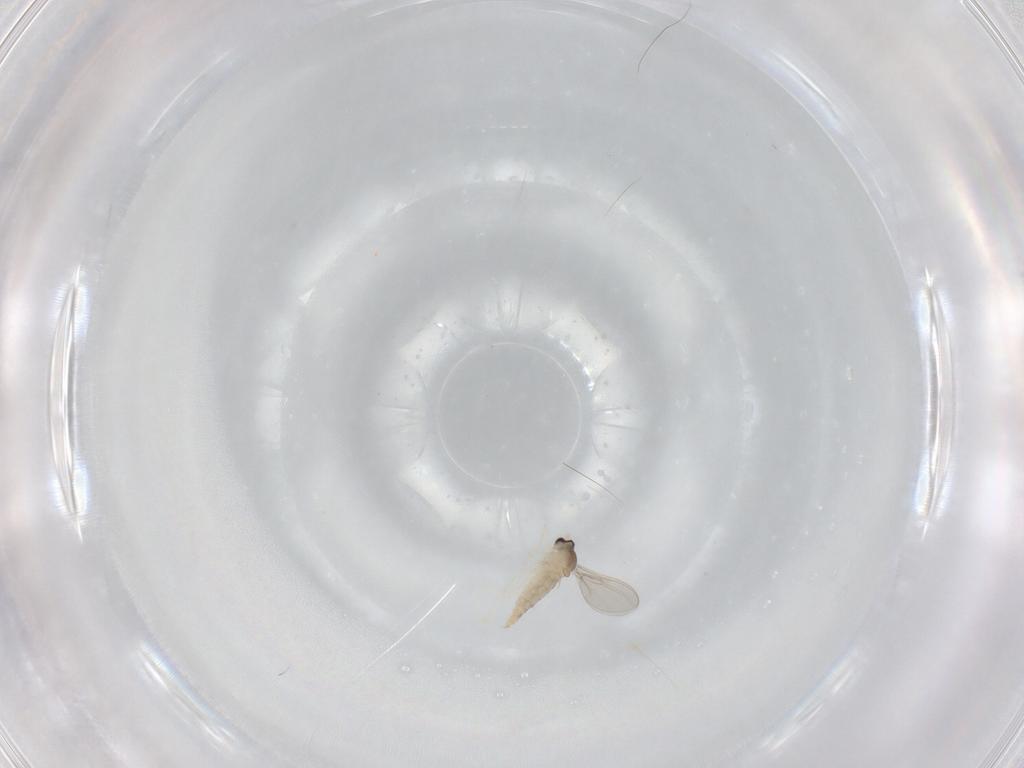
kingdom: Animalia
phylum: Arthropoda
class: Insecta
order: Diptera
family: Cecidomyiidae
